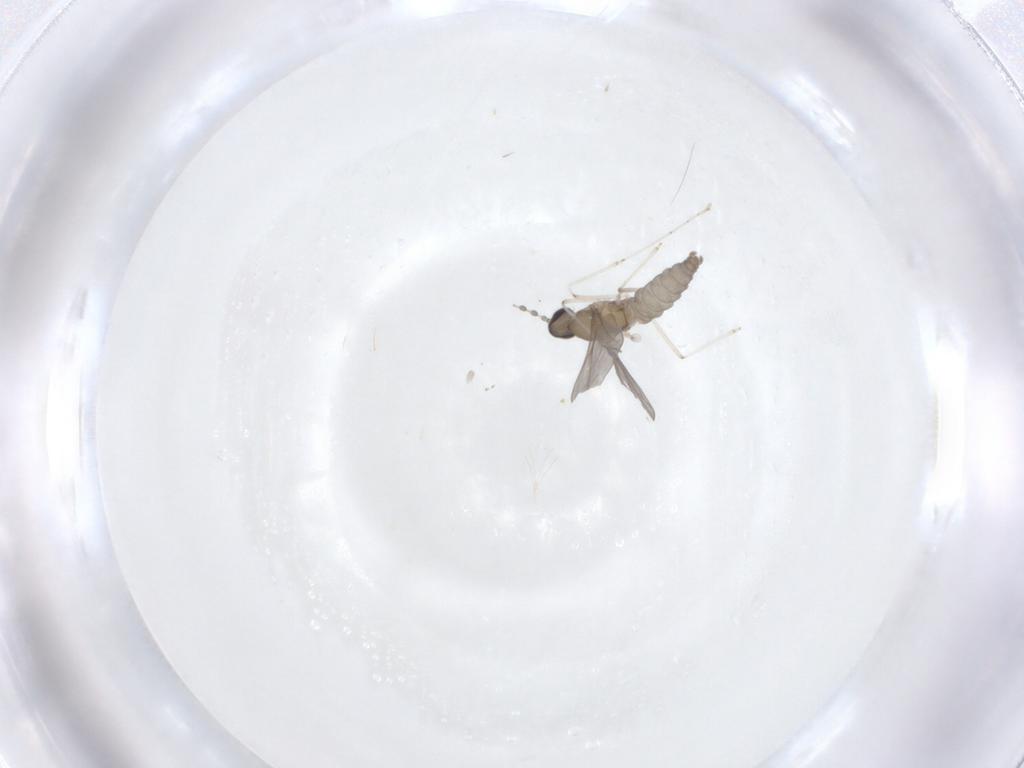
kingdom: Animalia
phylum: Arthropoda
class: Insecta
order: Diptera
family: Cecidomyiidae
